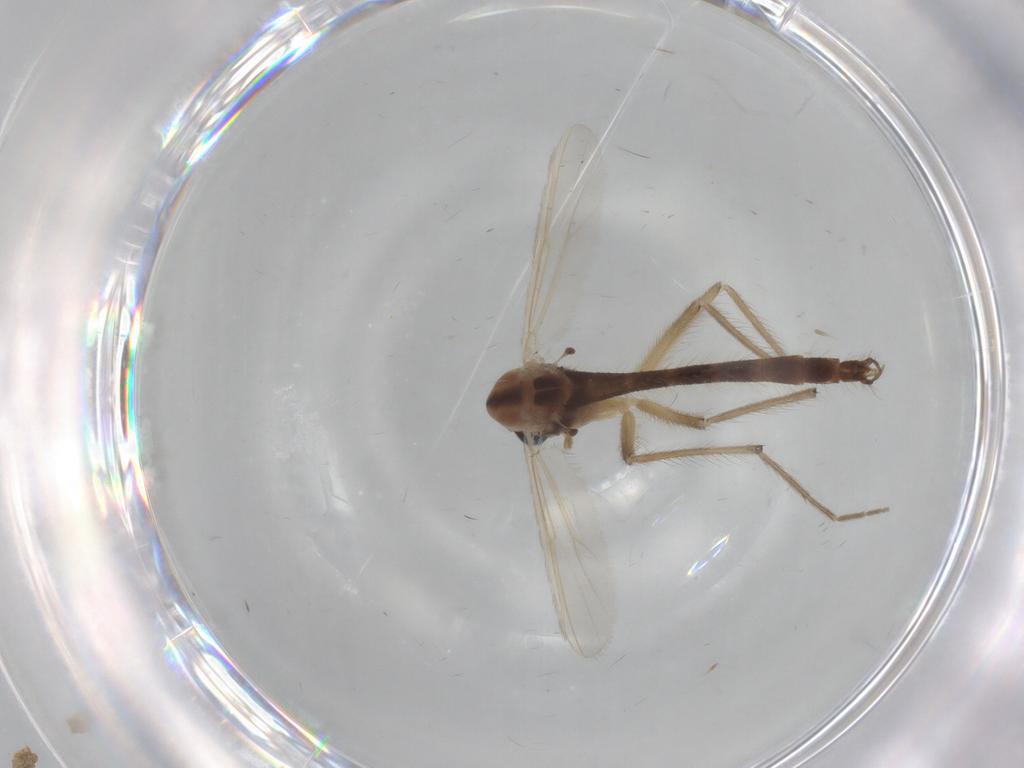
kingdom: Animalia
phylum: Arthropoda
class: Insecta
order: Diptera
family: Chironomidae
